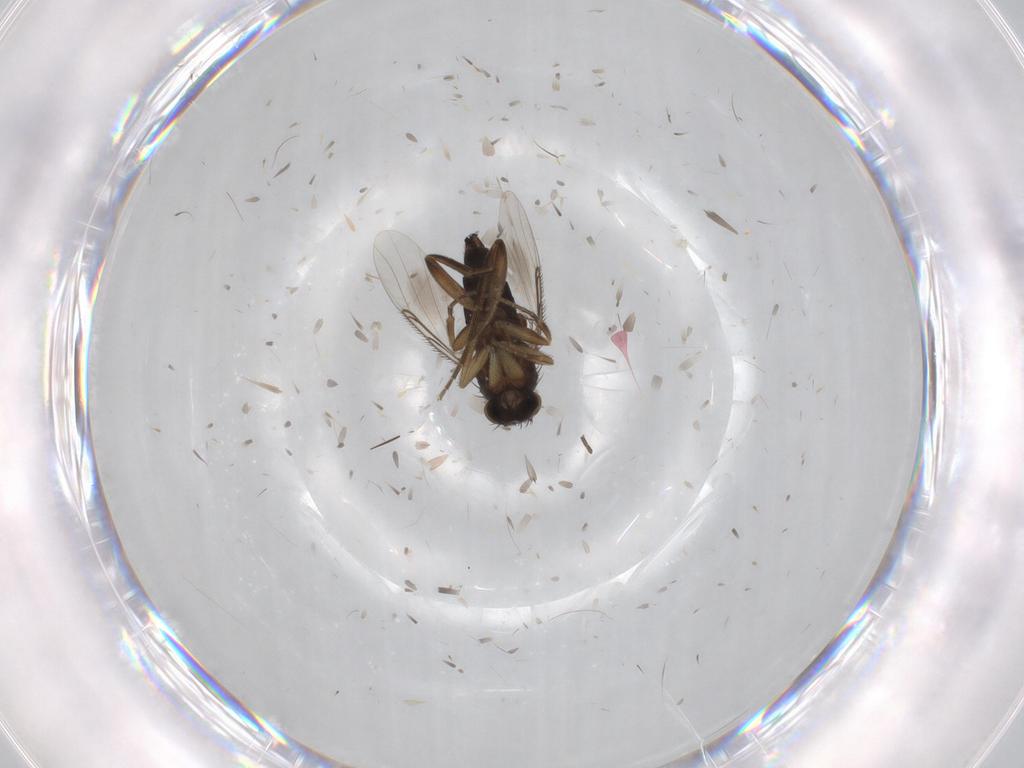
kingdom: Animalia
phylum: Arthropoda
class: Insecta
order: Diptera
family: Phoridae
